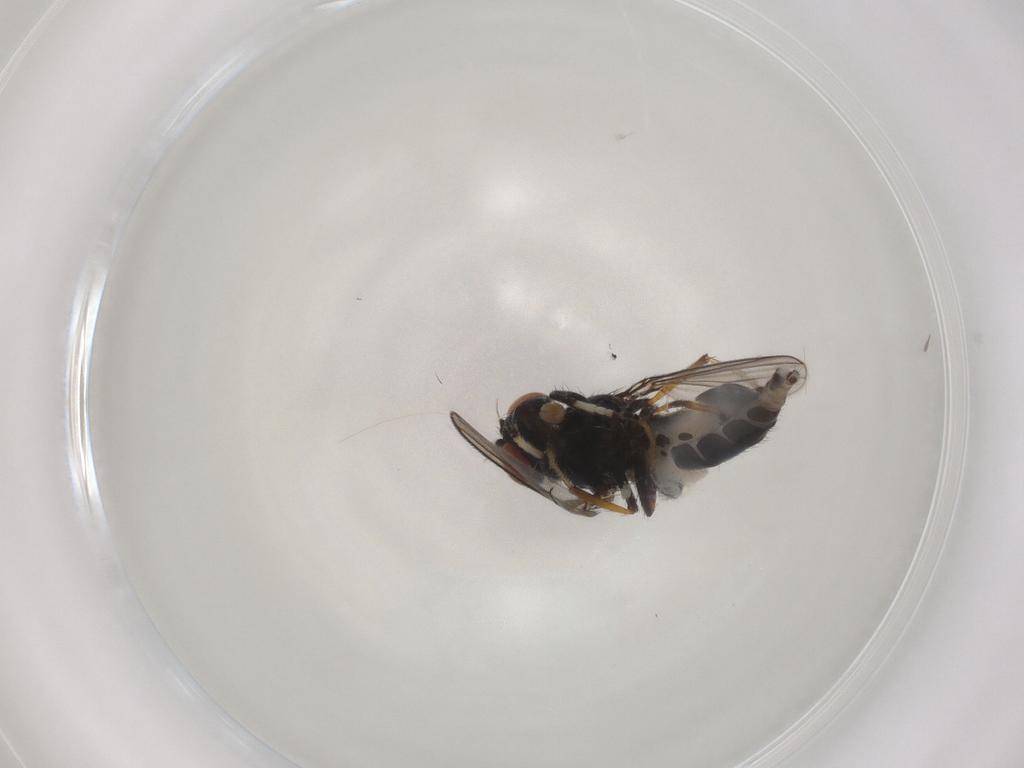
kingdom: Animalia
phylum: Arthropoda
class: Insecta
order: Diptera
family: Ephydridae
